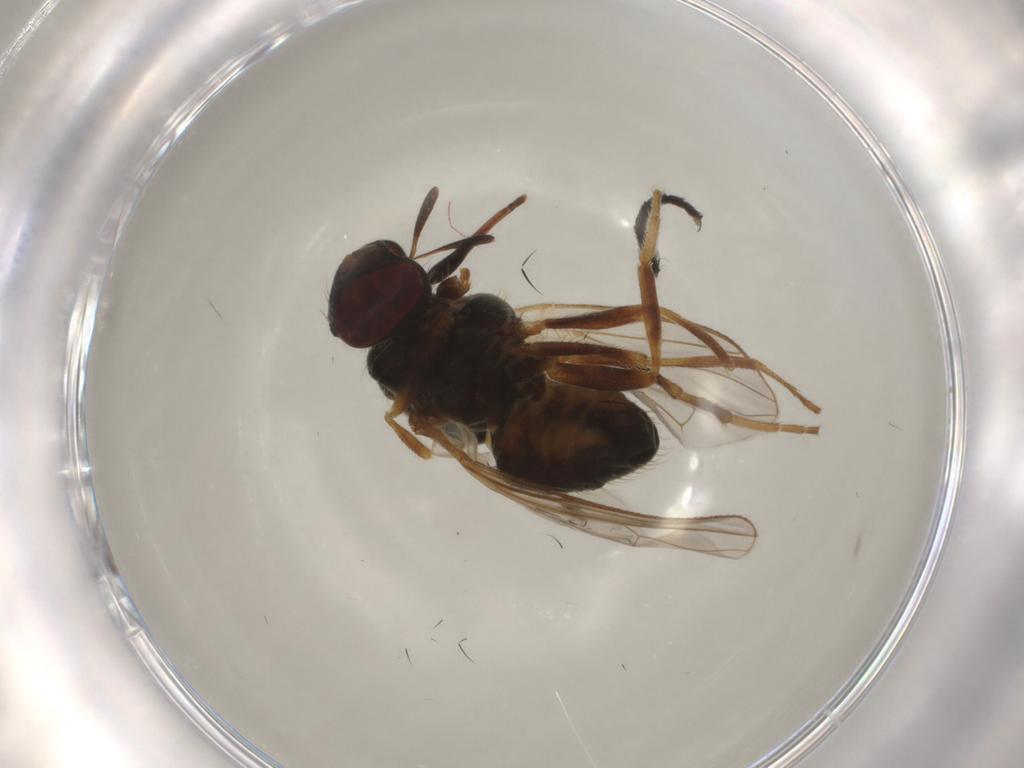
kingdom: Animalia
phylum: Arthropoda
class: Insecta
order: Diptera
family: Muscidae
